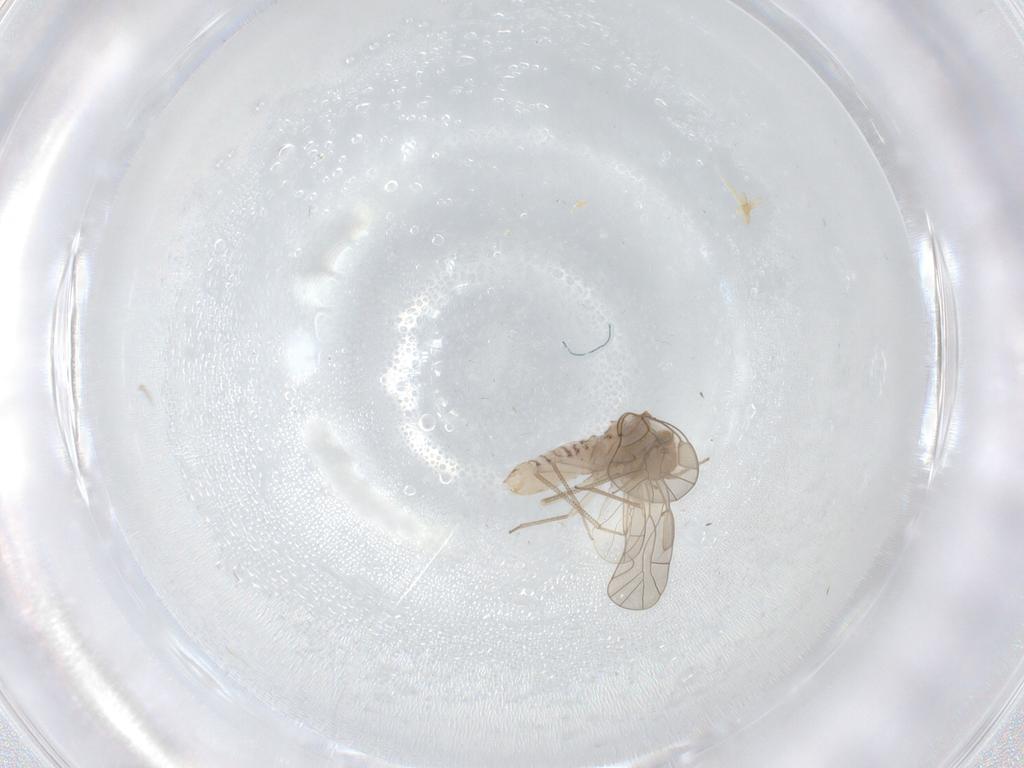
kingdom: Animalia
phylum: Arthropoda
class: Insecta
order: Psocodea
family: Lachesillidae
